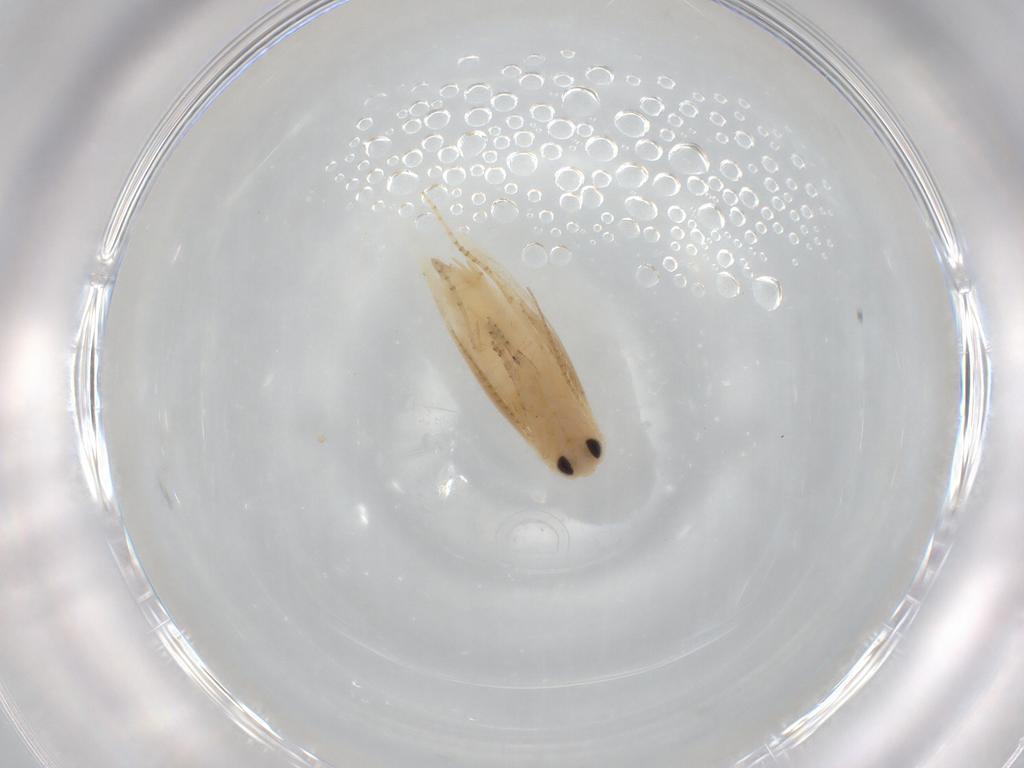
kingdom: Animalia
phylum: Arthropoda
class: Insecta
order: Lepidoptera
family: Bucculatricidae
